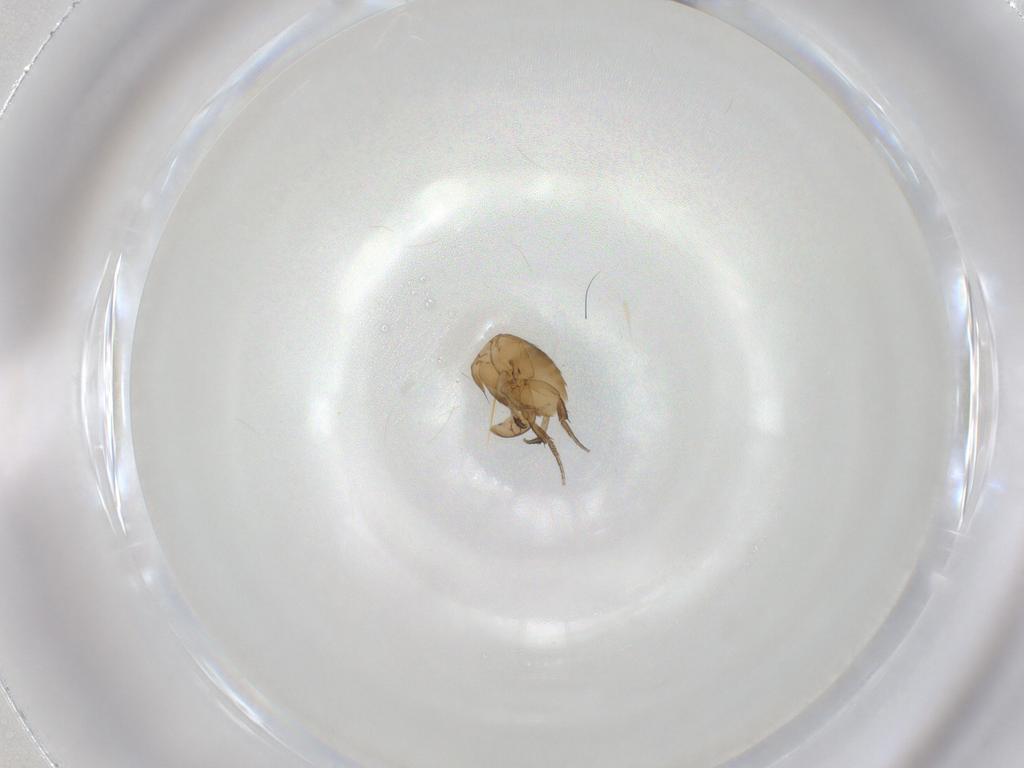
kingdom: Animalia
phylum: Arthropoda
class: Insecta
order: Diptera
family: Phoridae
